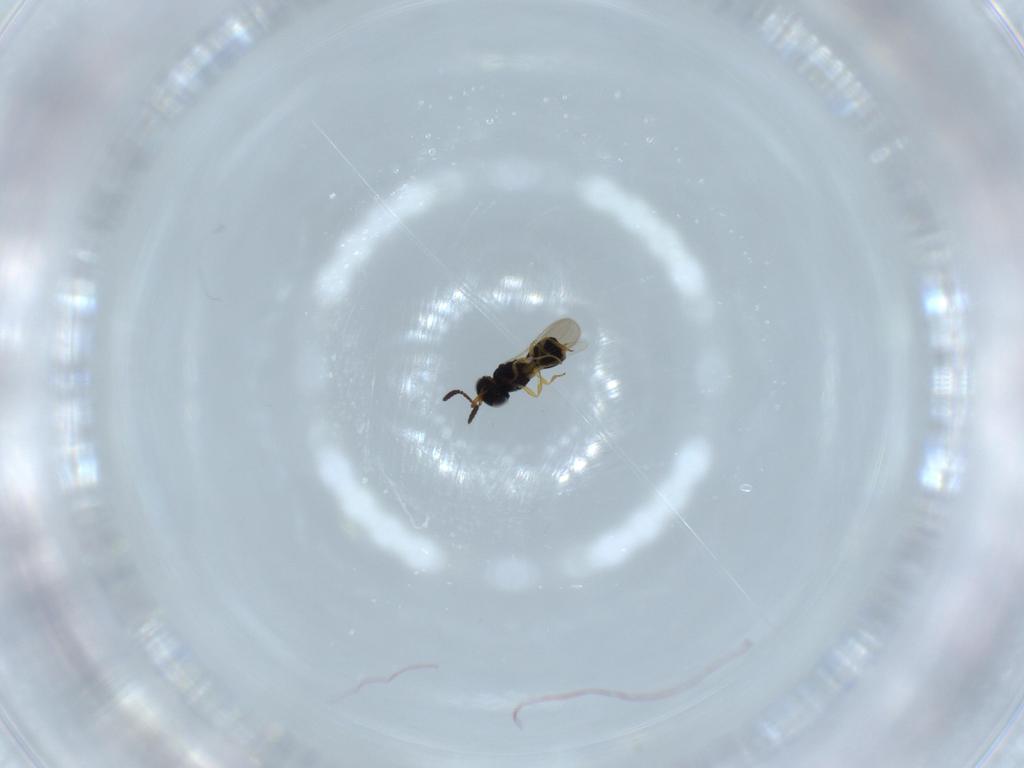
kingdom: Animalia
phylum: Arthropoda
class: Insecta
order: Hymenoptera
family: Scelionidae
